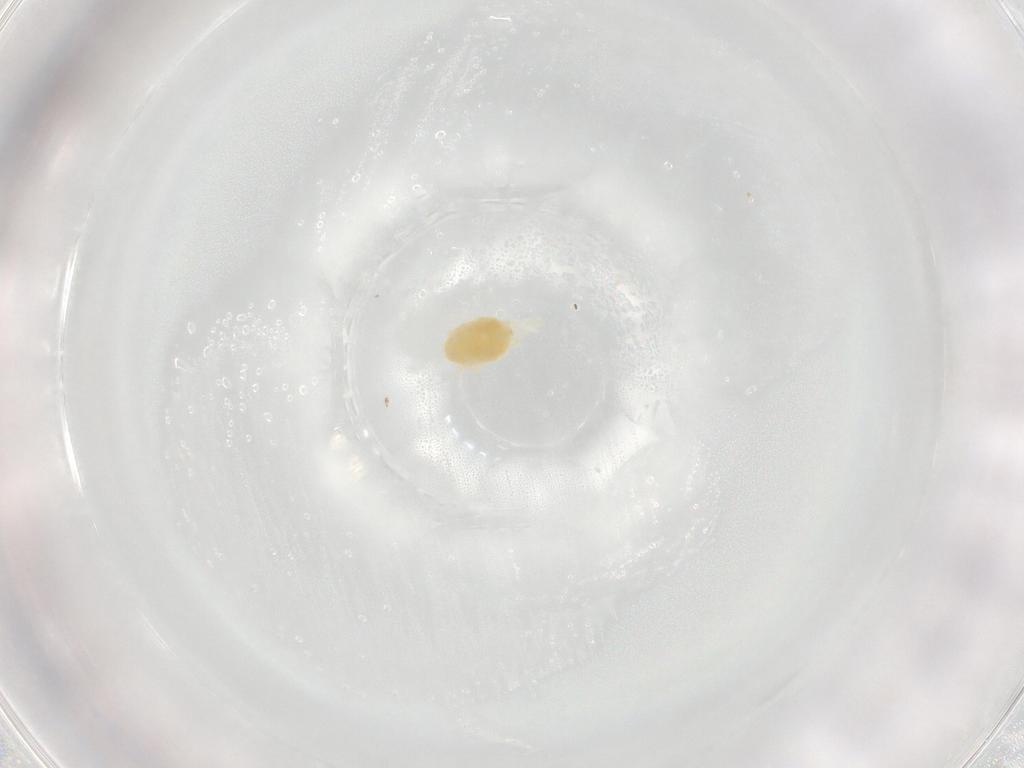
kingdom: Animalia
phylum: Arthropoda
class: Arachnida
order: Trombidiformes
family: Tetranychidae
